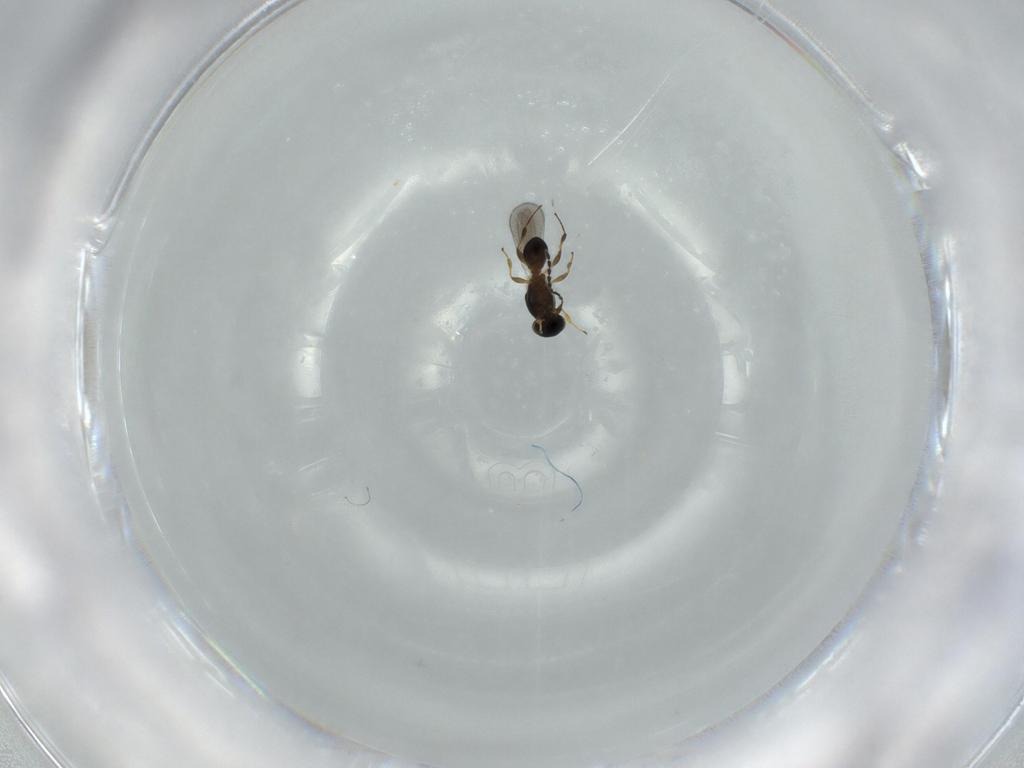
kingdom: Animalia
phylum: Arthropoda
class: Insecta
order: Hymenoptera
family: Platygastridae
